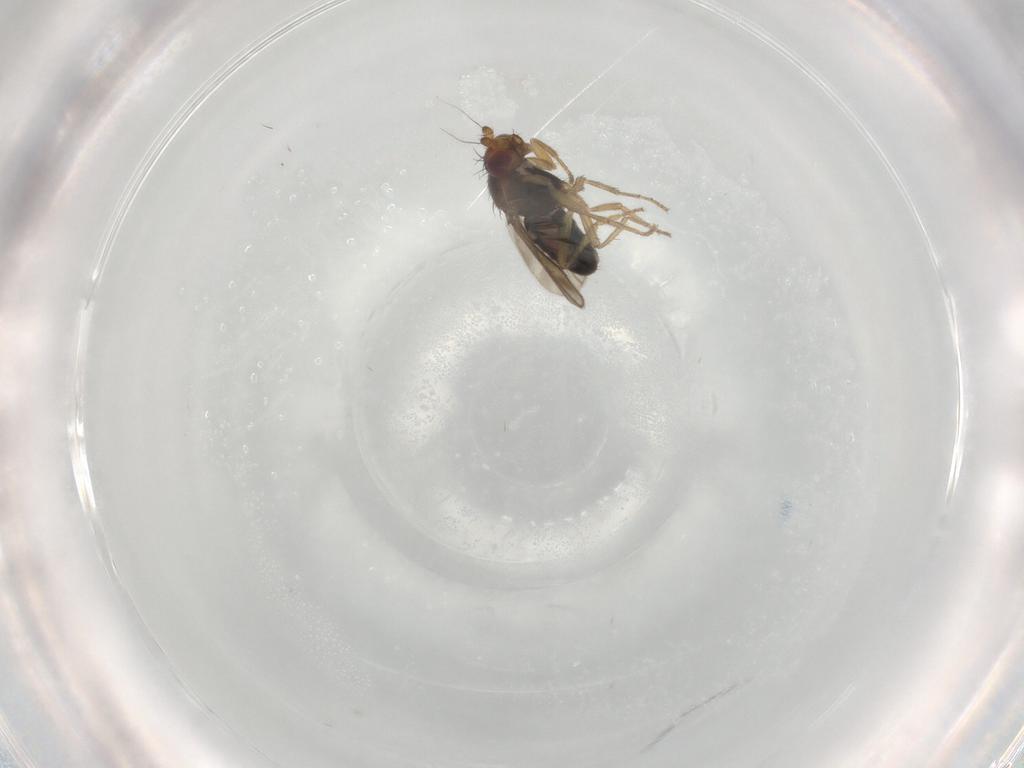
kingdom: Animalia
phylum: Arthropoda
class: Insecta
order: Diptera
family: Sphaeroceridae
